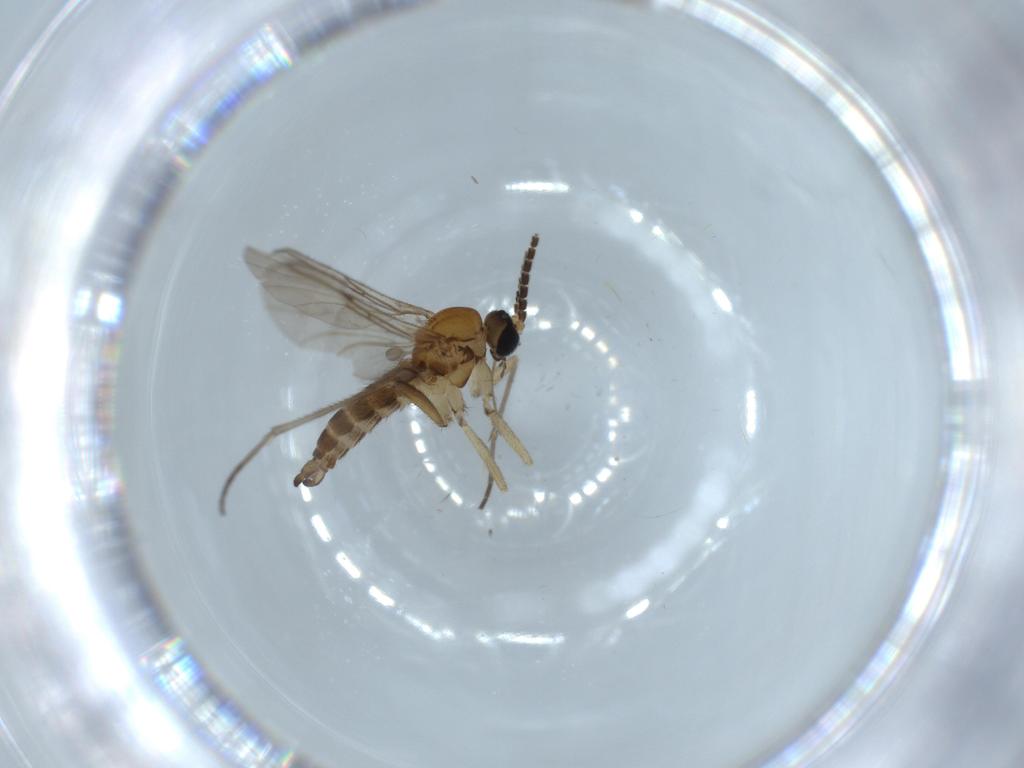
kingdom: Animalia
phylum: Arthropoda
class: Insecta
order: Diptera
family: Sciaridae
